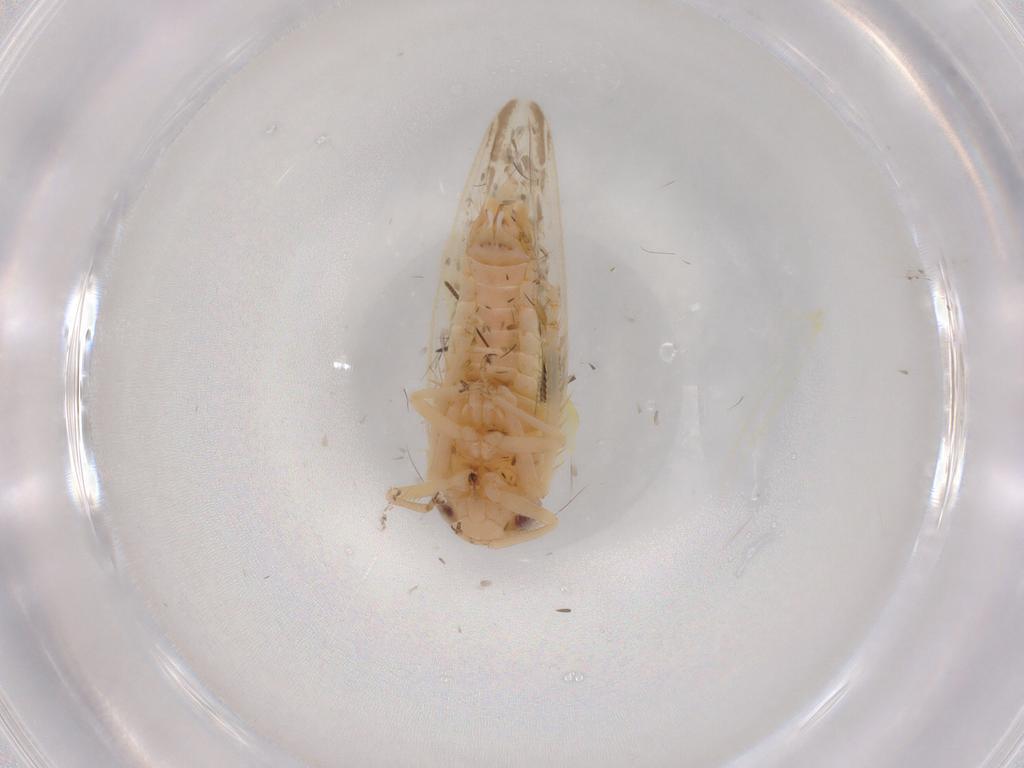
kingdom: Animalia
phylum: Arthropoda
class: Insecta
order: Hemiptera
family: Cicadellidae
